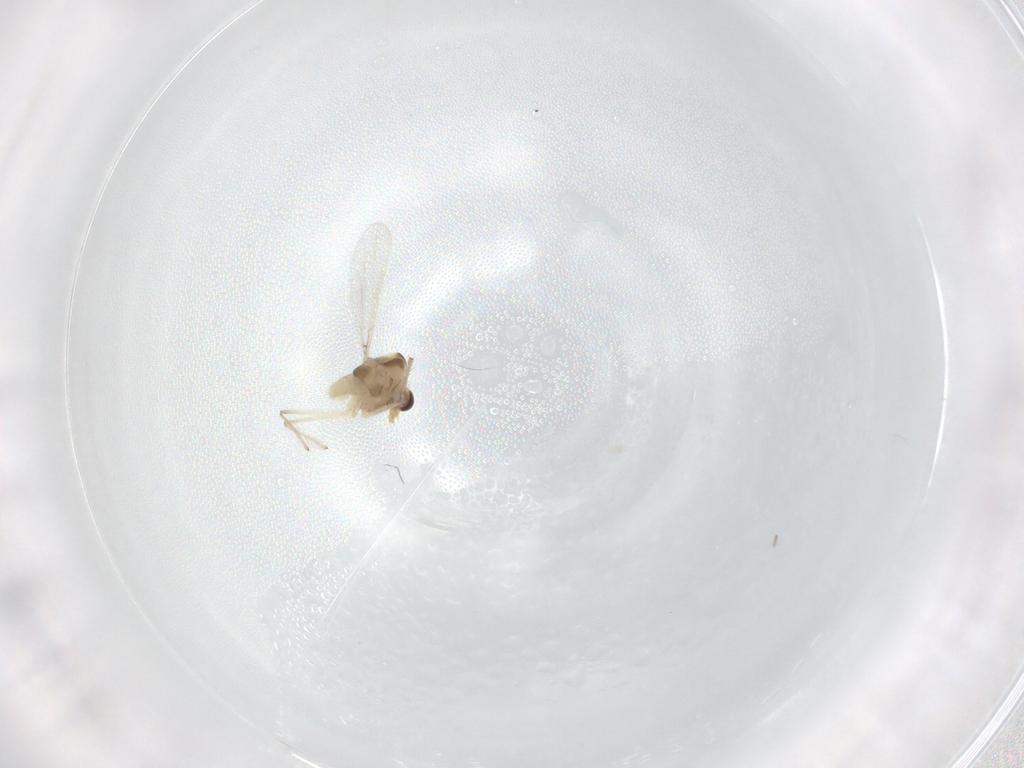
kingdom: Animalia
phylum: Arthropoda
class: Insecta
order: Diptera
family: Chironomidae
